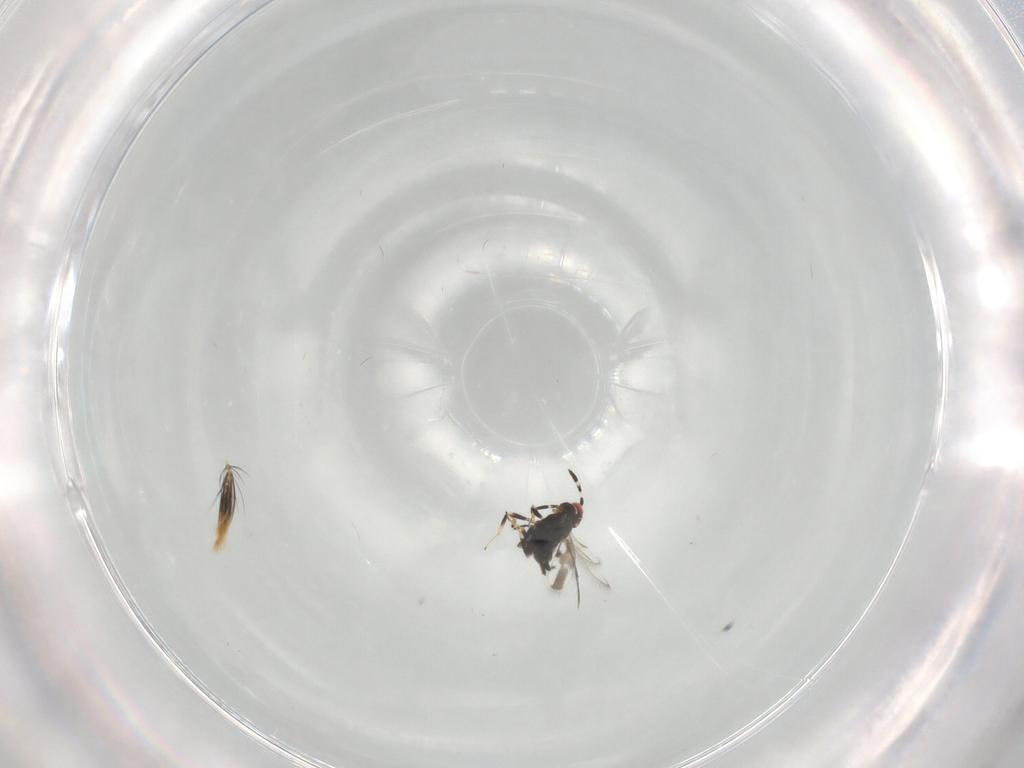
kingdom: Animalia
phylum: Arthropoda
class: Insecta
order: Hymenoptera
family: Azotidae
